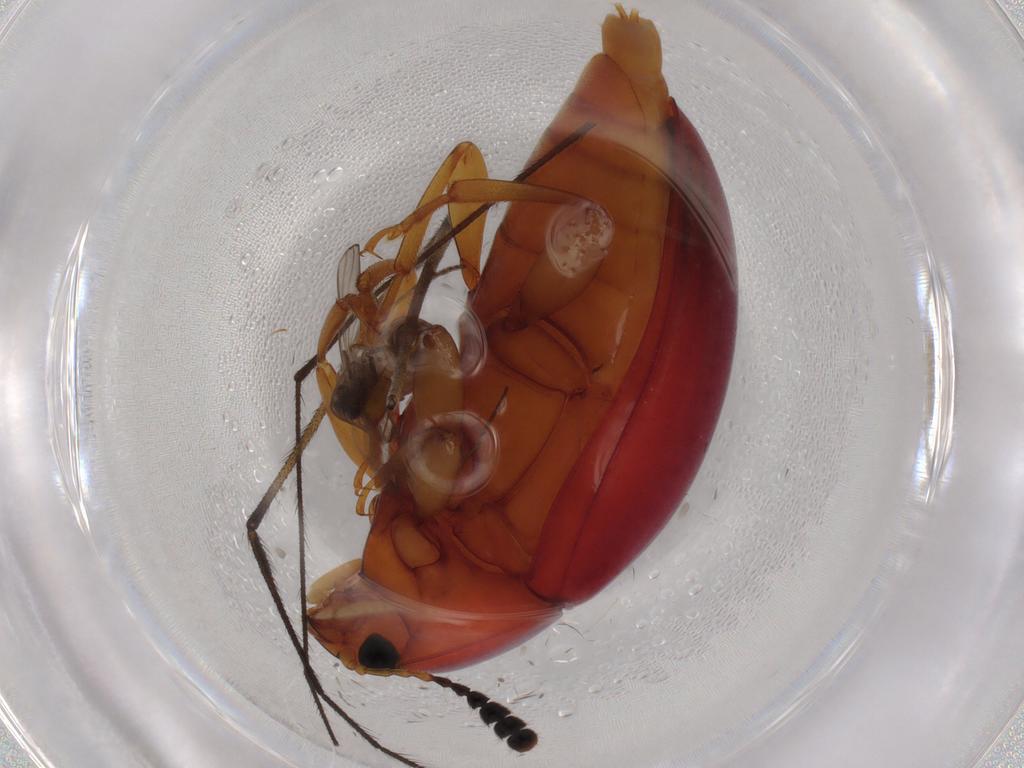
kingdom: Animalia
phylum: Arthropoda
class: Insecta
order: Diptera
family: Psychodidae
